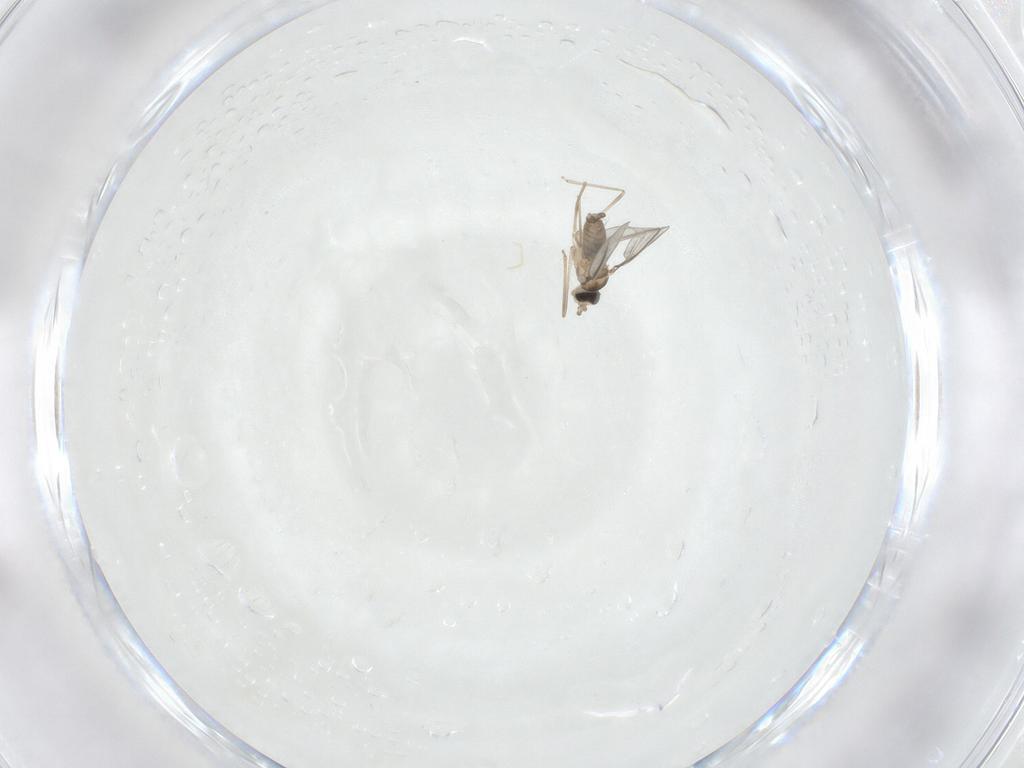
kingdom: Animalia
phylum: Arthropoda
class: Insecta
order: Diptera
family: Cecidomyiidae
